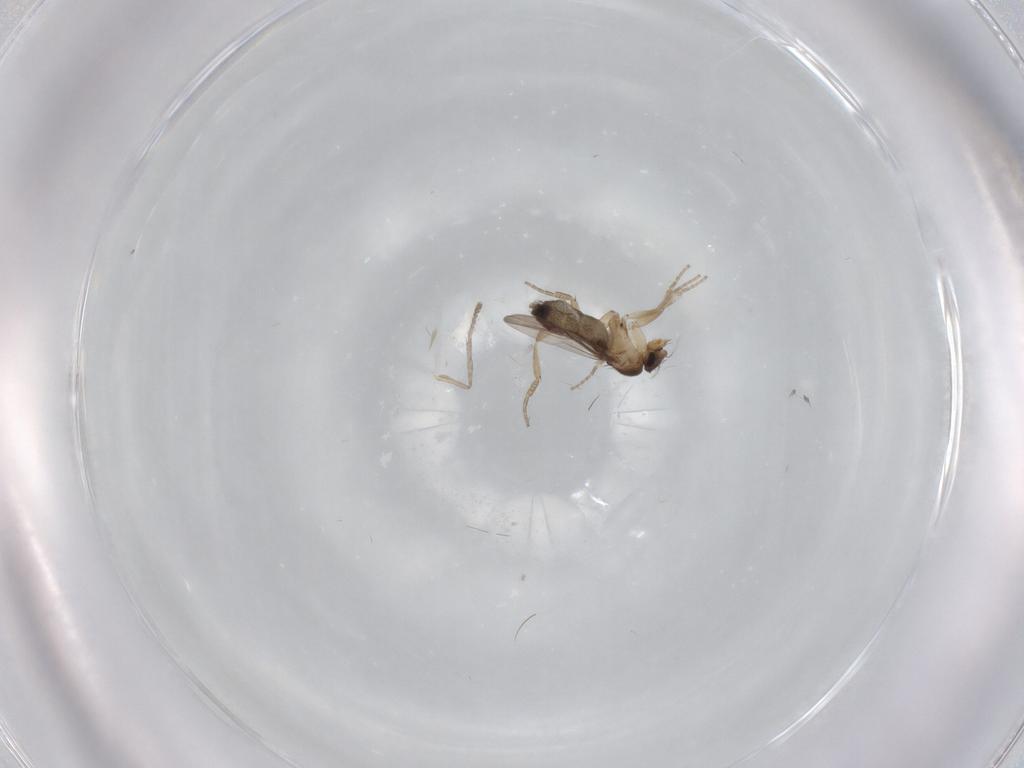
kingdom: Animalia
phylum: Arthropoda
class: Insecta
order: Diptera
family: Phoridae
